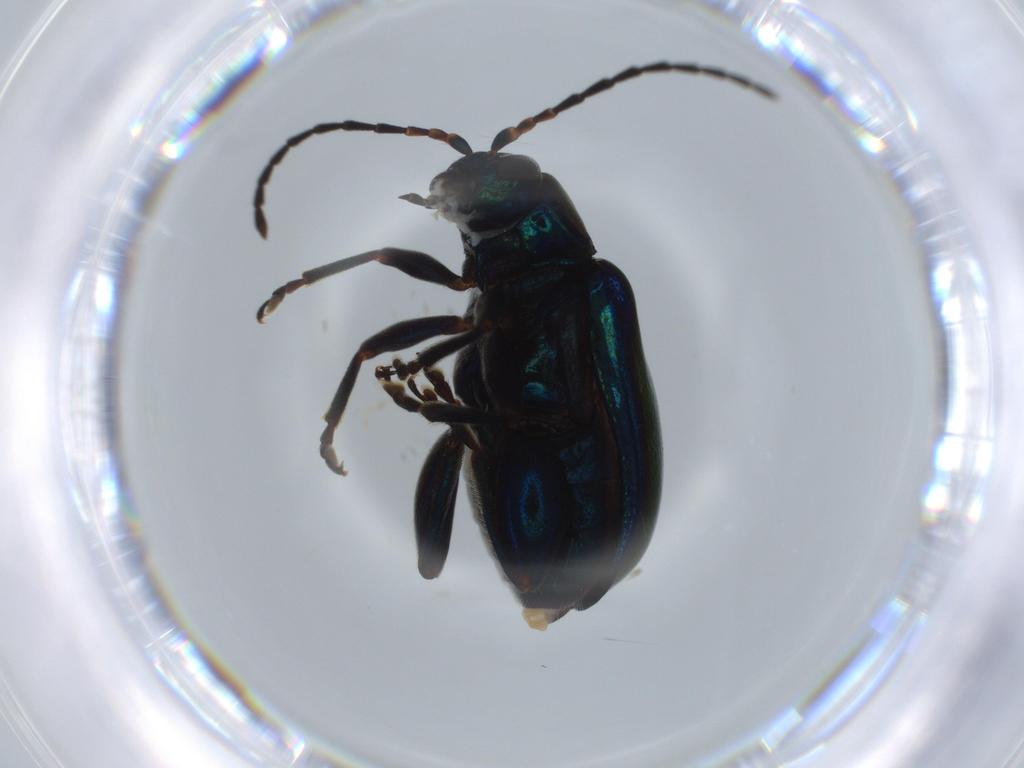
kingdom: Animalia
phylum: Arthropoda
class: Insecta
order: Coleoptera
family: Chrysomelidae
